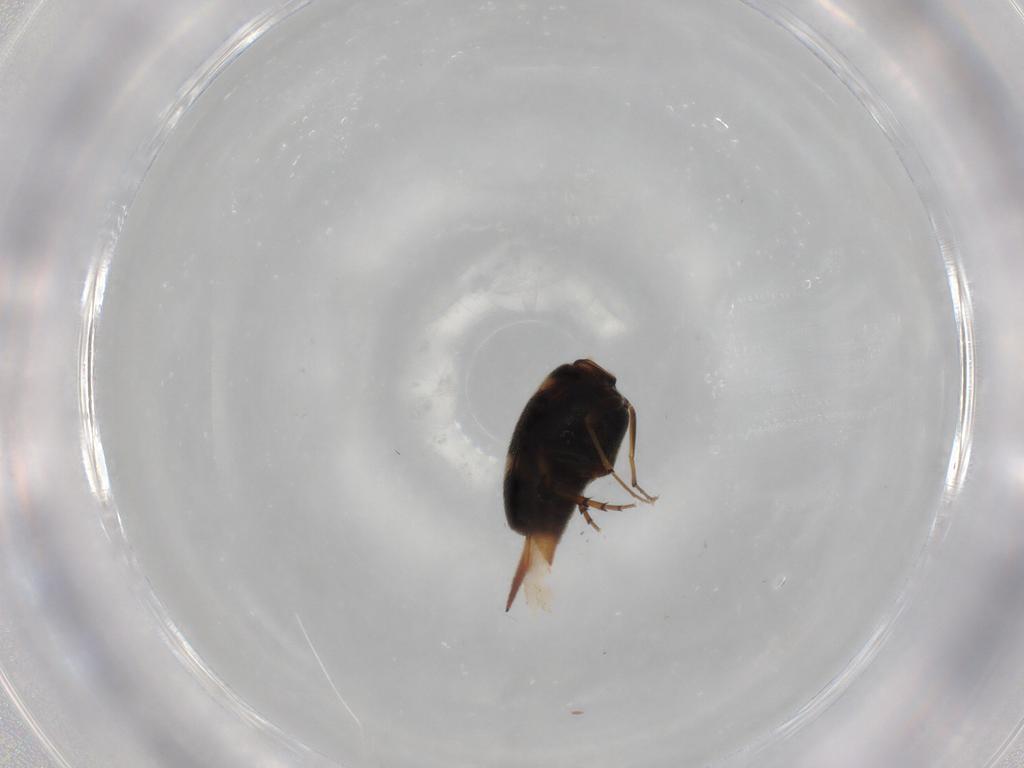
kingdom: Animalia
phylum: Arthropoda
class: Insecta
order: Coleoptera
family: Mordellidae
